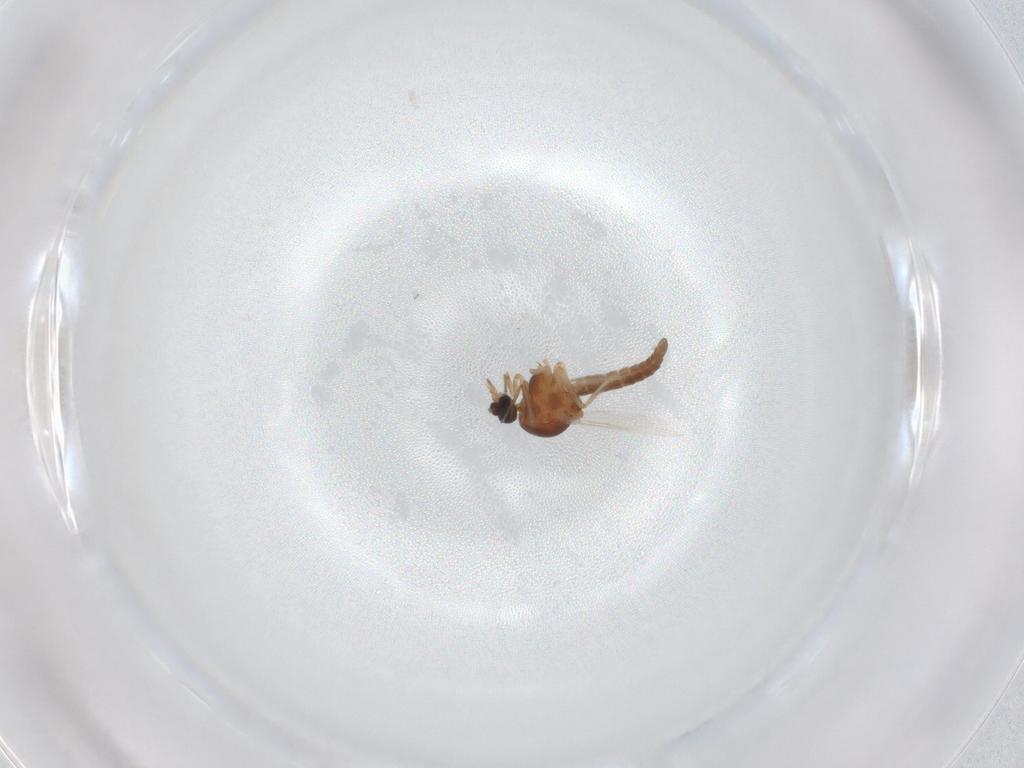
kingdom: Animalia
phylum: Arthropoda
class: Insecta
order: Diptera
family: Ceratopogonidae
